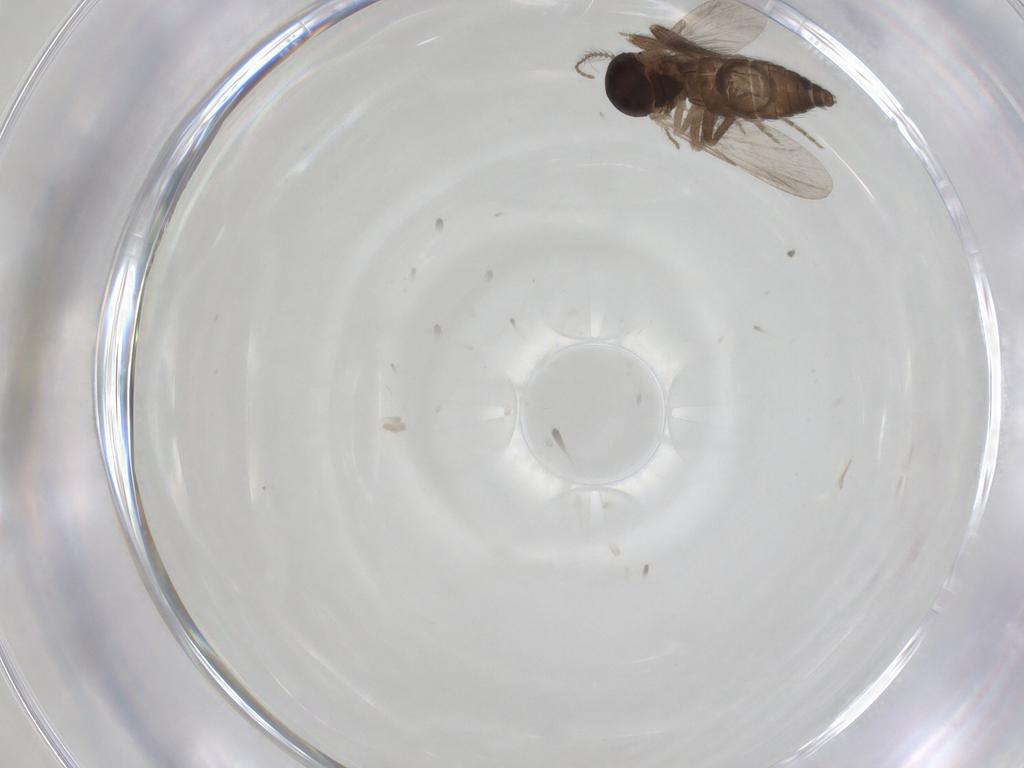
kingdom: Animalia
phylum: Arthropoda
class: Insecta
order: Diptera
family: Ceratopogonidae
